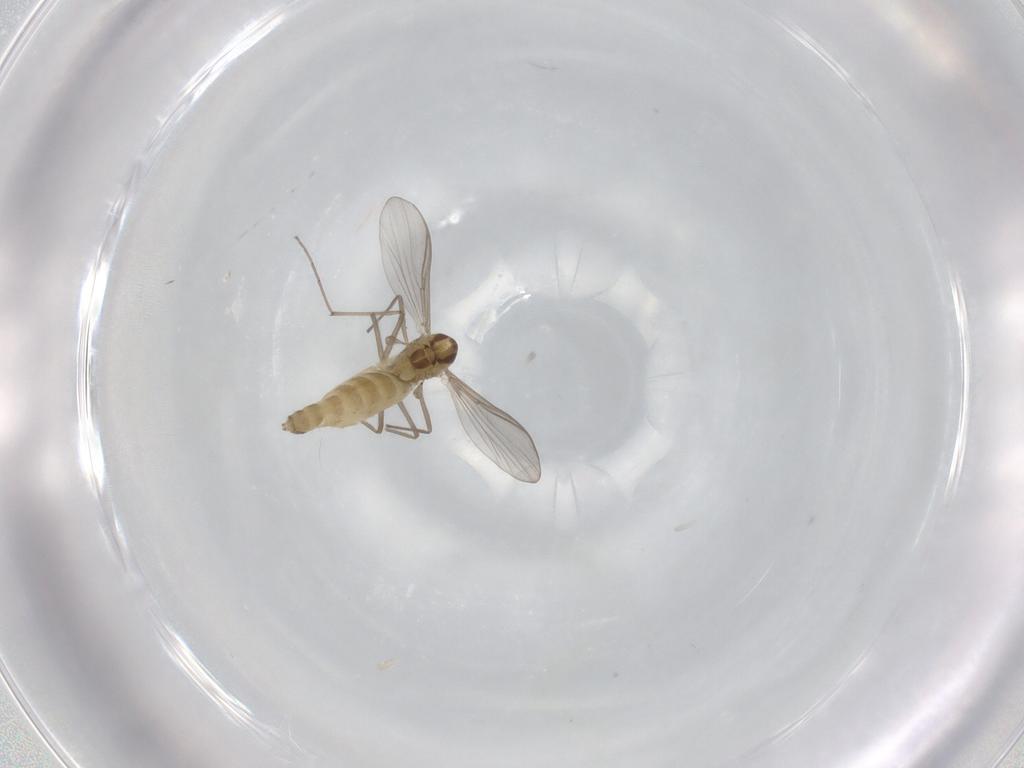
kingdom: Animalia
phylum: Arthropoda
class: Insecta
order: Diptera
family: Chironomidae
